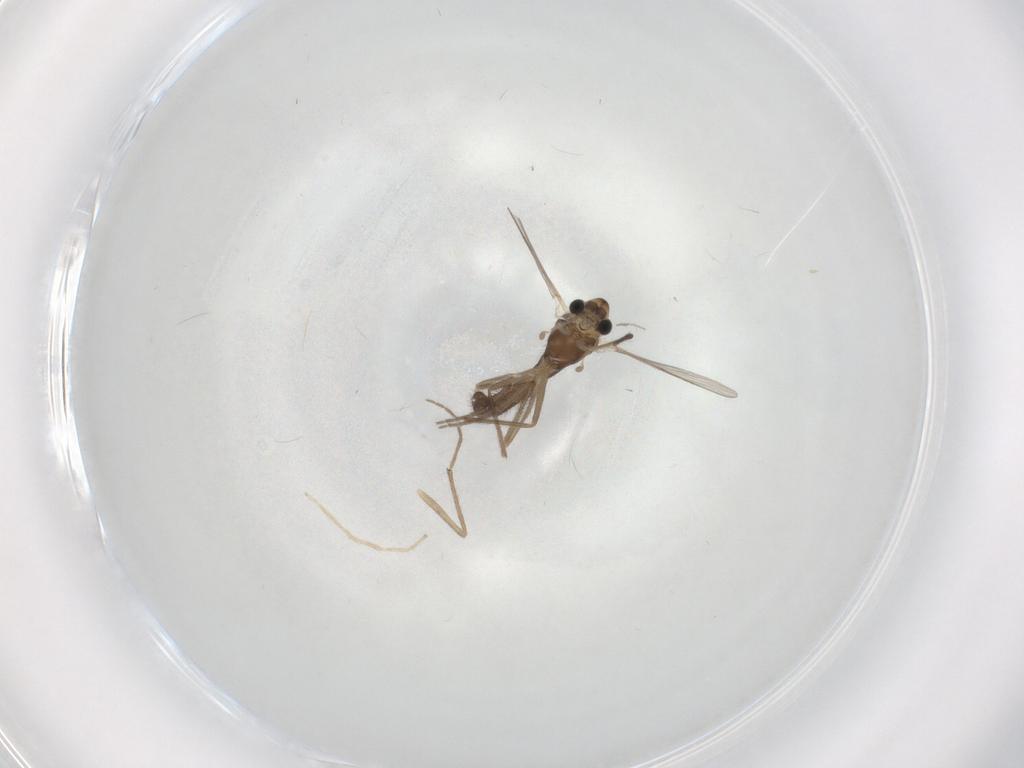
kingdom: Animalia
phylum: Arthropoda
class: Insecta
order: Diptera
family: Chironomidae
